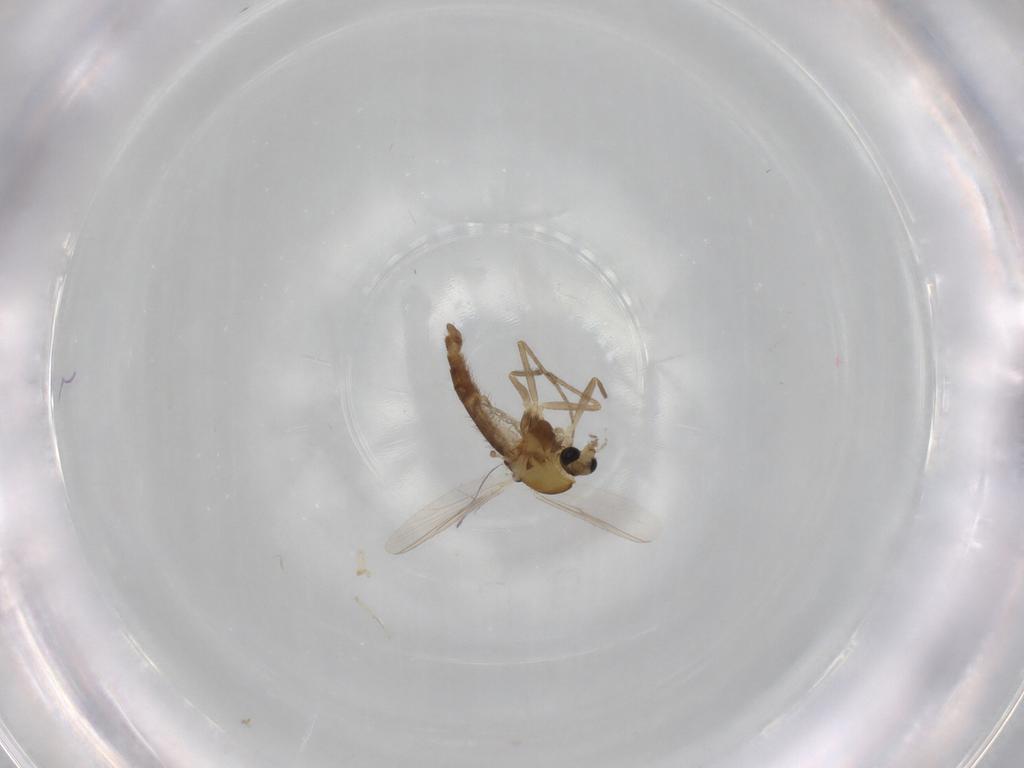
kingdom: Animalia
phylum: Arthropoda
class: Insecta
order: Diptera
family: Chironomidae
